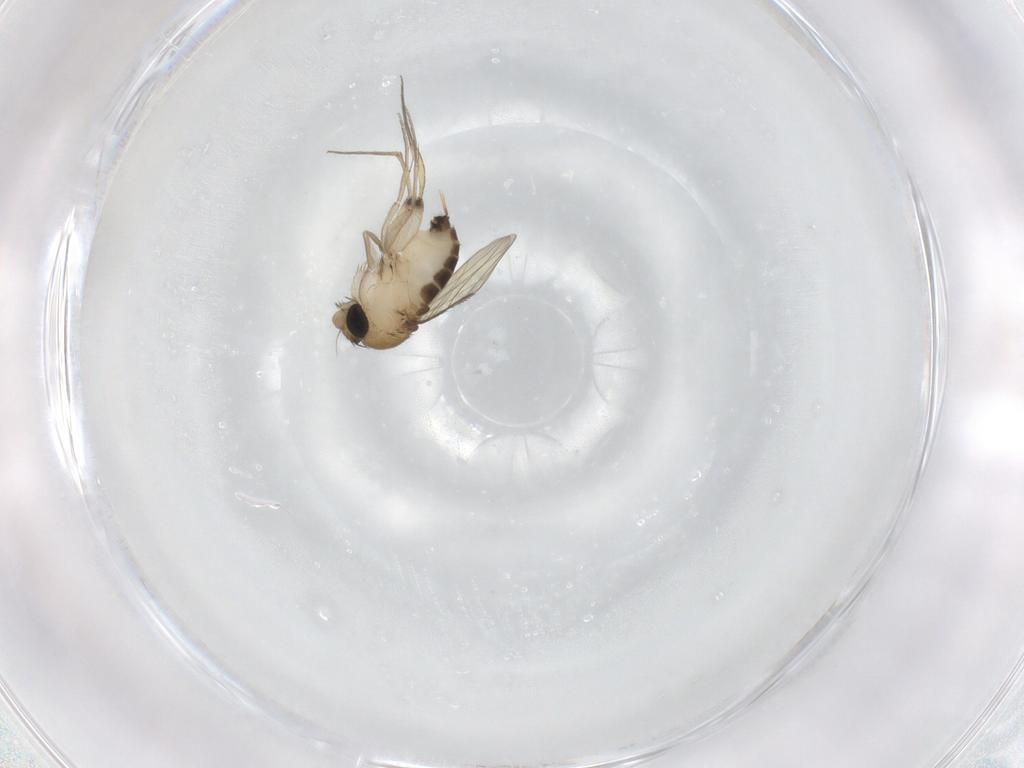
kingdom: Animalia
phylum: Arthropoda
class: Insecta
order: Diptera
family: Phoridae
